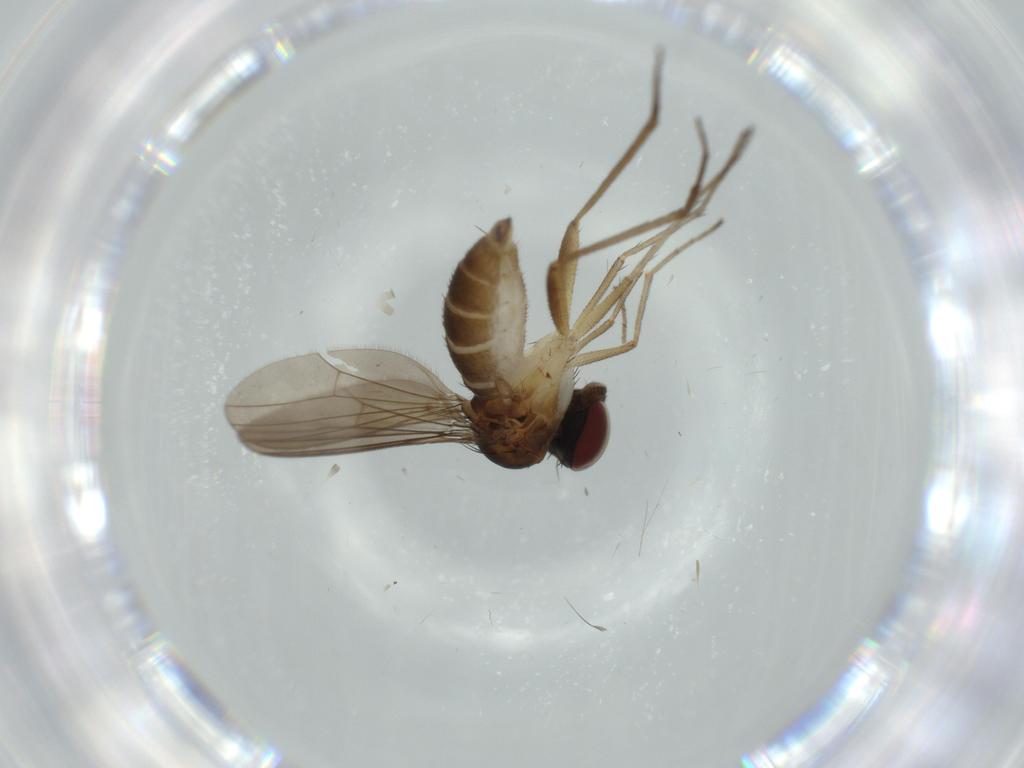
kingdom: Animalia
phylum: Arthropoda
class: Insecta
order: Diptera
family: Dolichopodidae
